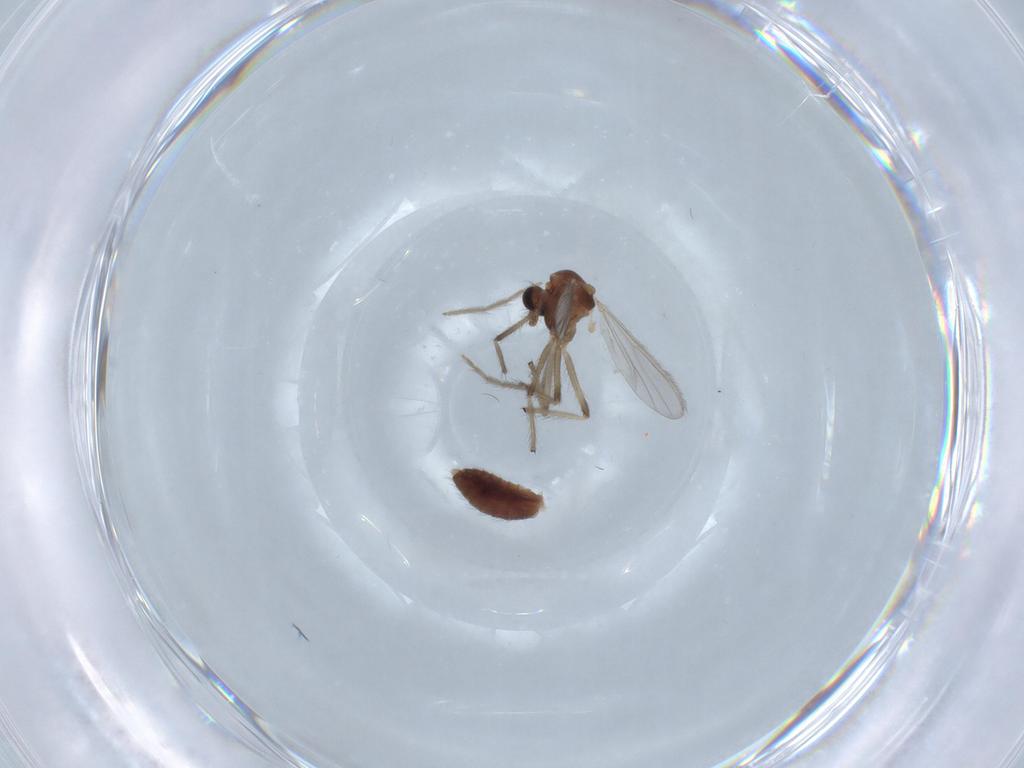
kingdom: Animalia
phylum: Arthropoda
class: Insecta
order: Diptera
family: Chironomidae
